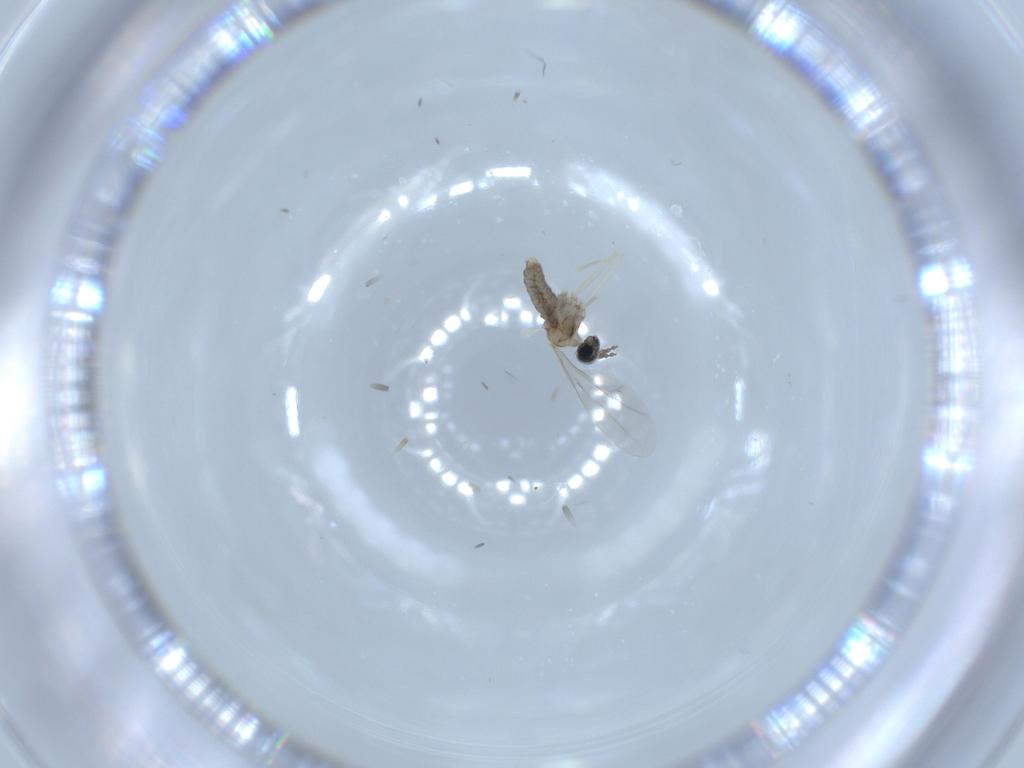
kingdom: Animalia
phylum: Arthropoda
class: Insecta
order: Diptera
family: Cecidomyiidae
